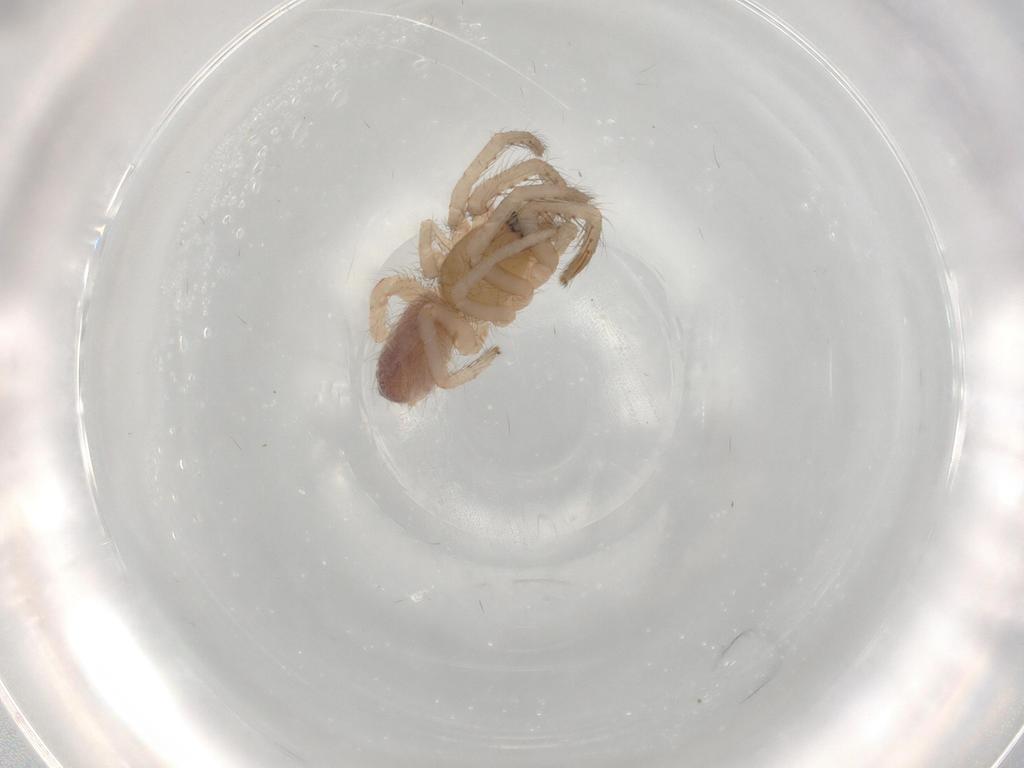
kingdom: Animalia
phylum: Arthropoda
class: Arachnida
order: Araneae
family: Segestriidae
